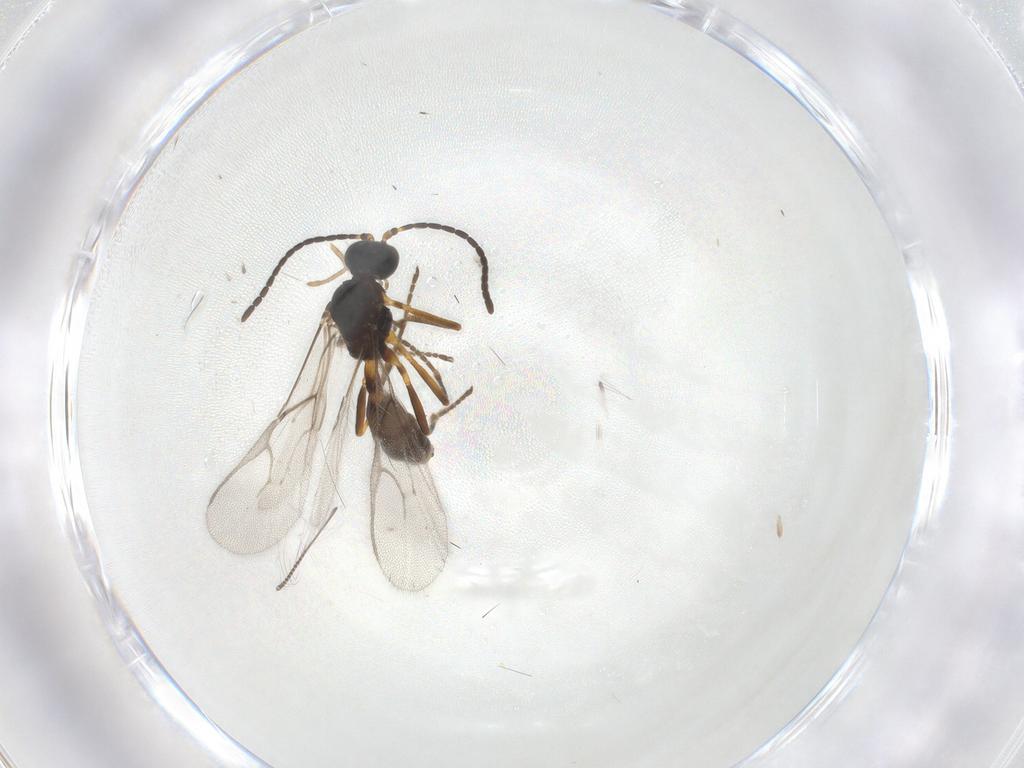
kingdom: Animalia
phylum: Arthropoda
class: Insecta
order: Hymenoptera
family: Braconidae
